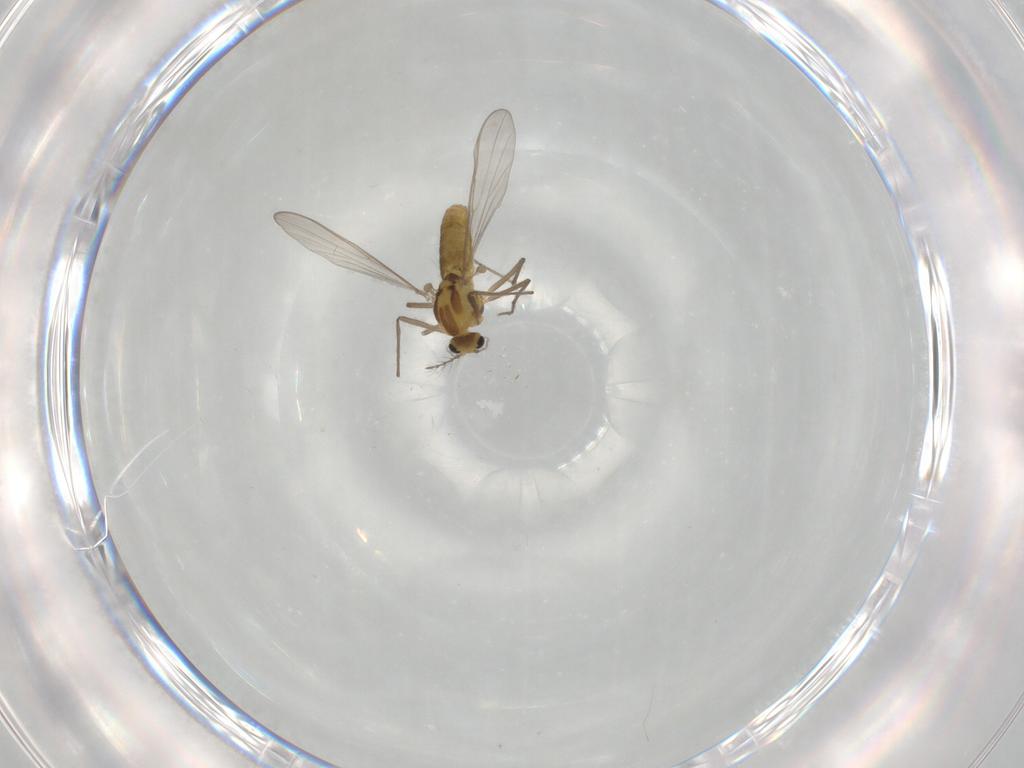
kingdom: Animalia
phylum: Arthropoda
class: Insecta
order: Diptera
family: Chironomidae
